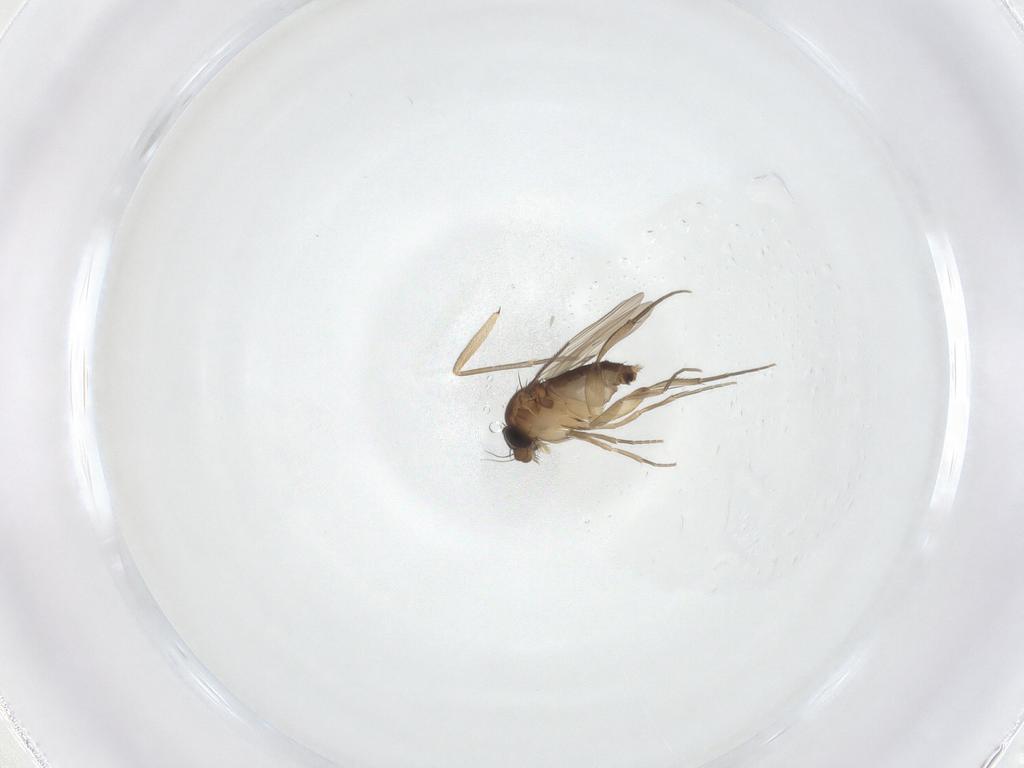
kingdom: Animalia
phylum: Arthropoda
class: Insecta
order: Diptera
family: Phoridae
